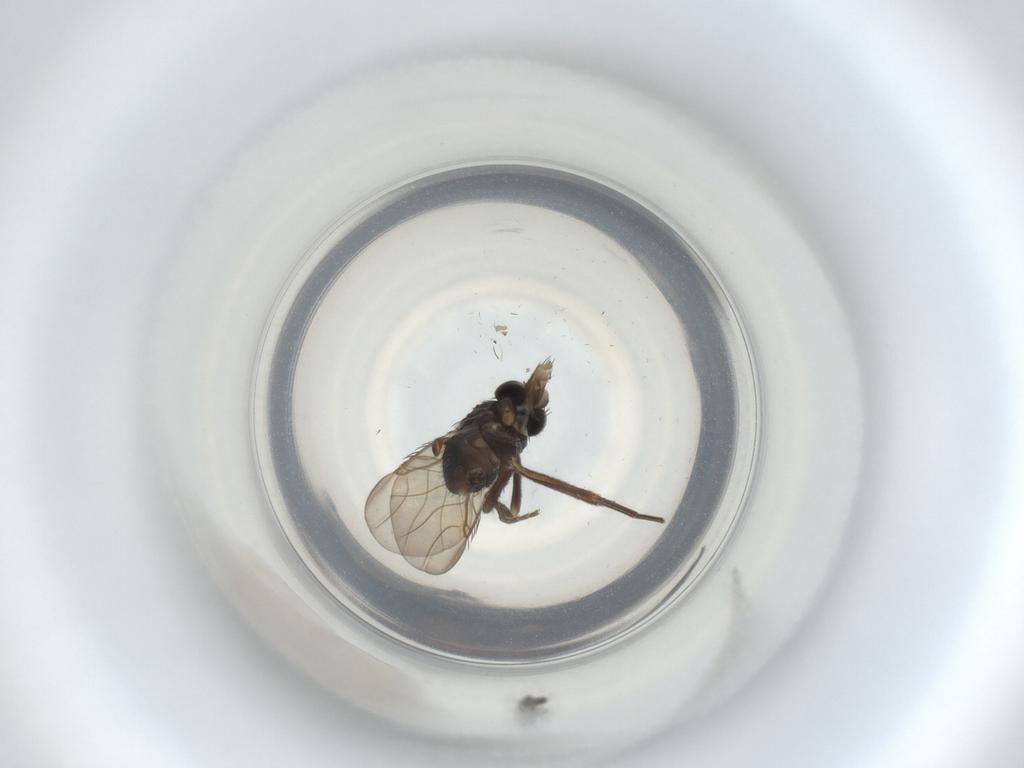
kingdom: Animalia
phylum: Arthropoda
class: Insecta
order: Diptera
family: Phoridae
